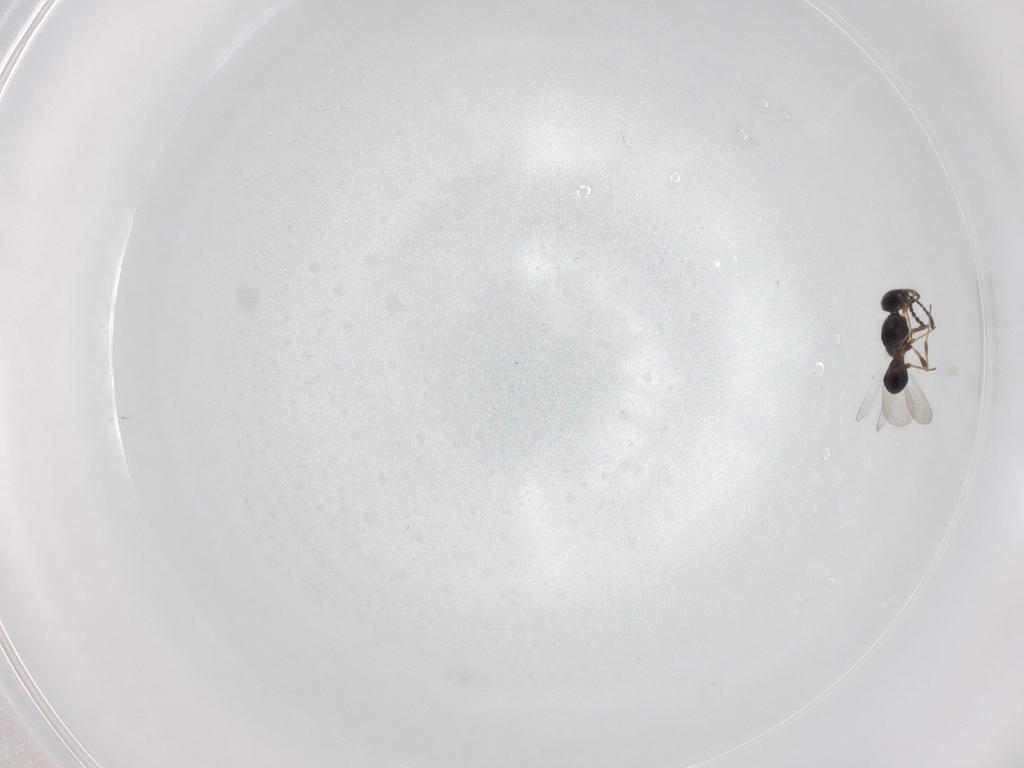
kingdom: Animalia
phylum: Arthropoda
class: Insecta
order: Hymenoptera
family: Platygastridae
